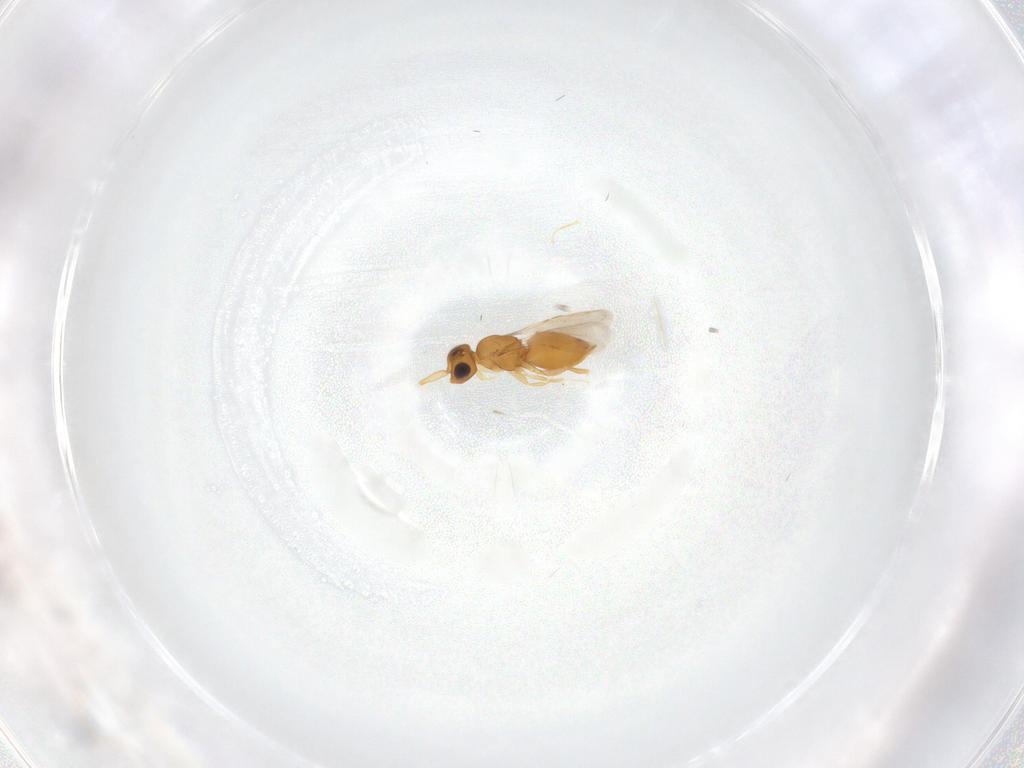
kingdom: Animalia
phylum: Arthropoda
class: Insecta
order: Hymenoptera
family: Ceraphronidae
